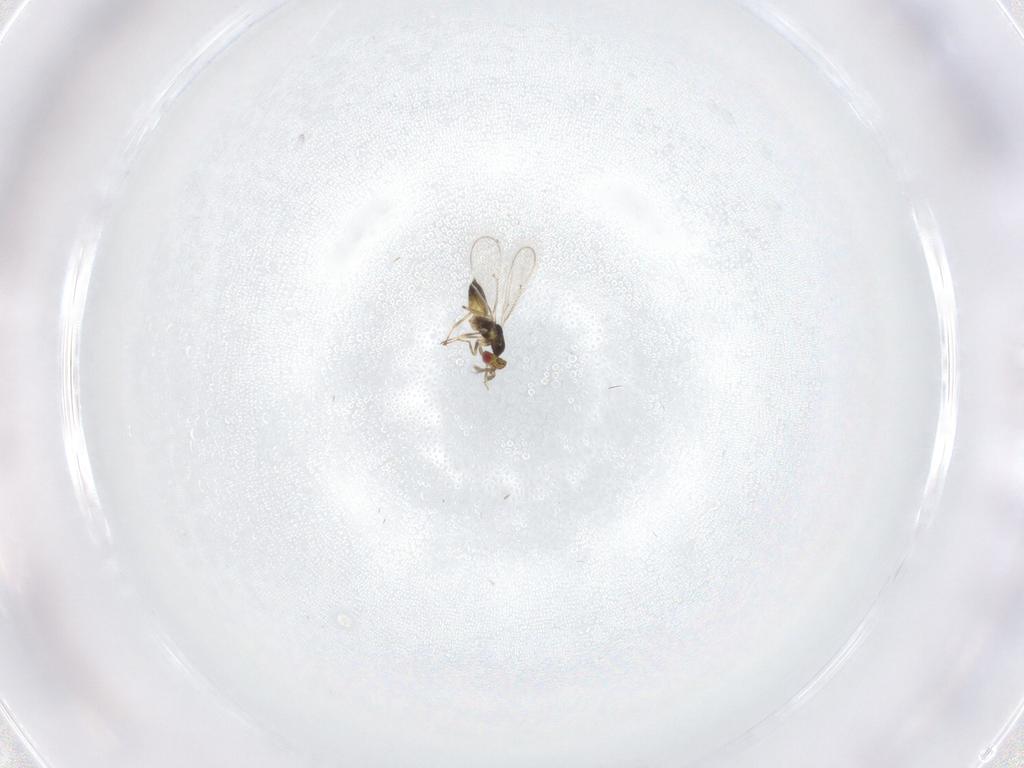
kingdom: Animalia
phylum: Arthropoda
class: Insecta
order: Hymenoptera
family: Eulophidae
